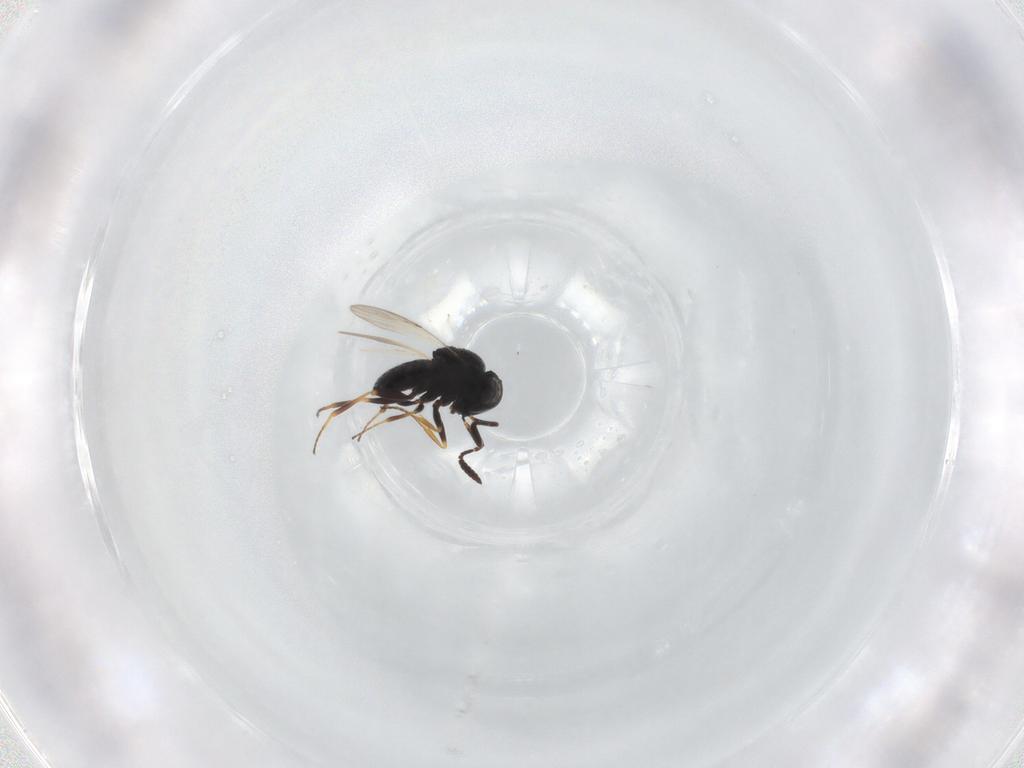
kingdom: Animalia
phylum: Arthropoda
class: Insecta
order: Hymenoptera
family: Scelionidae
